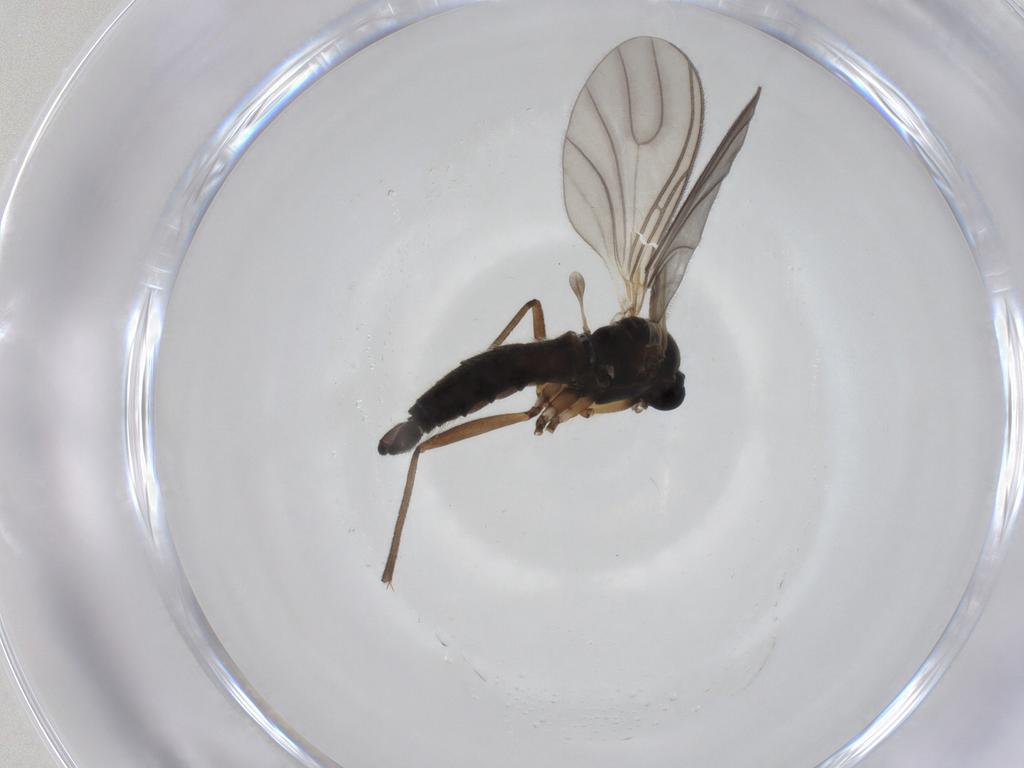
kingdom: Animalia
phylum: Arthropoda
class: Insecta
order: Diptera
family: Sciaridae
